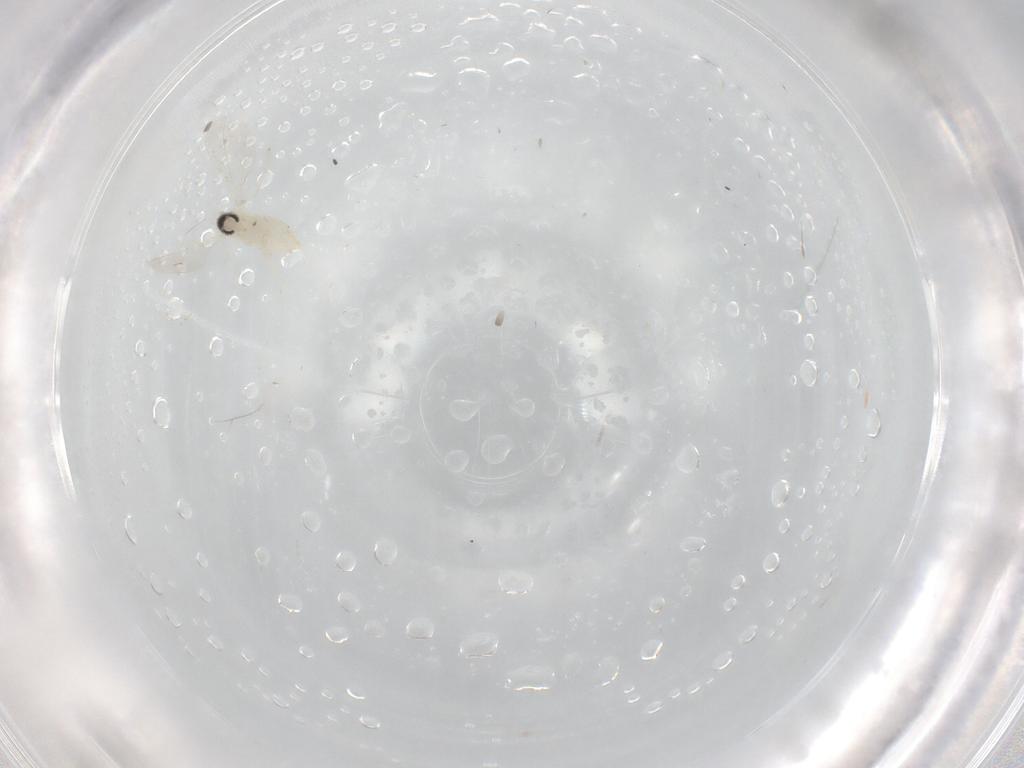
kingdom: Animalia
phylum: Arthropoda
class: Insecta
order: Diptera
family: Cecidomyiidae
